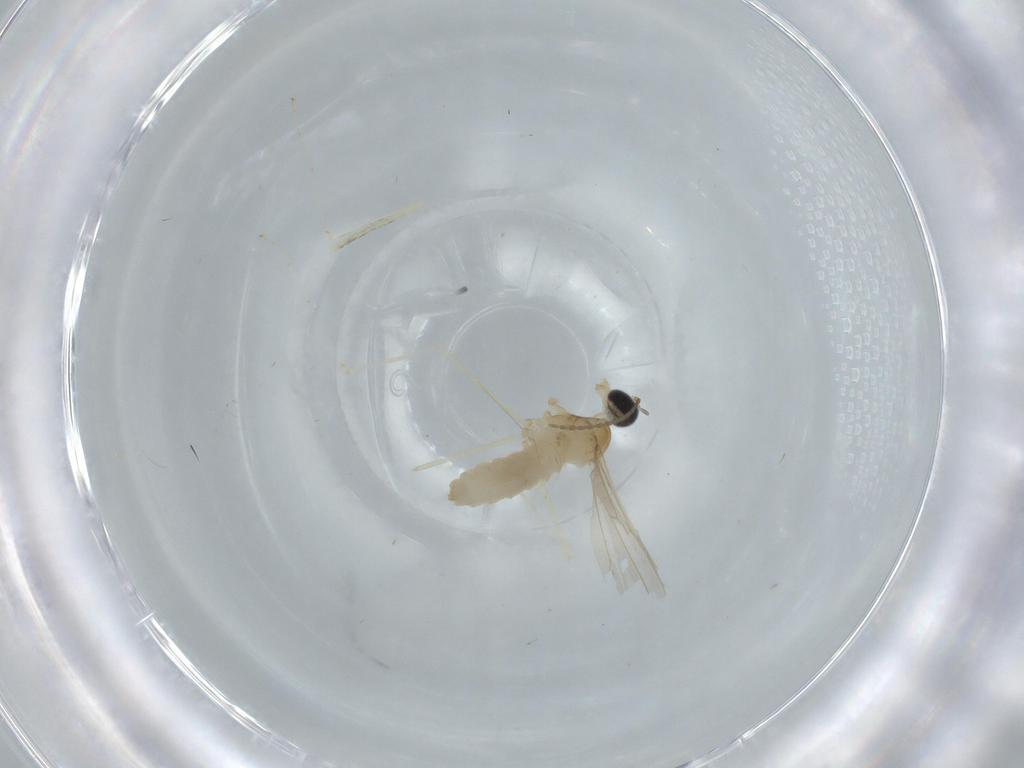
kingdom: Animalia
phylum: Arthropoda
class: Insecta
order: Diptera
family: Cecidomyiidae
